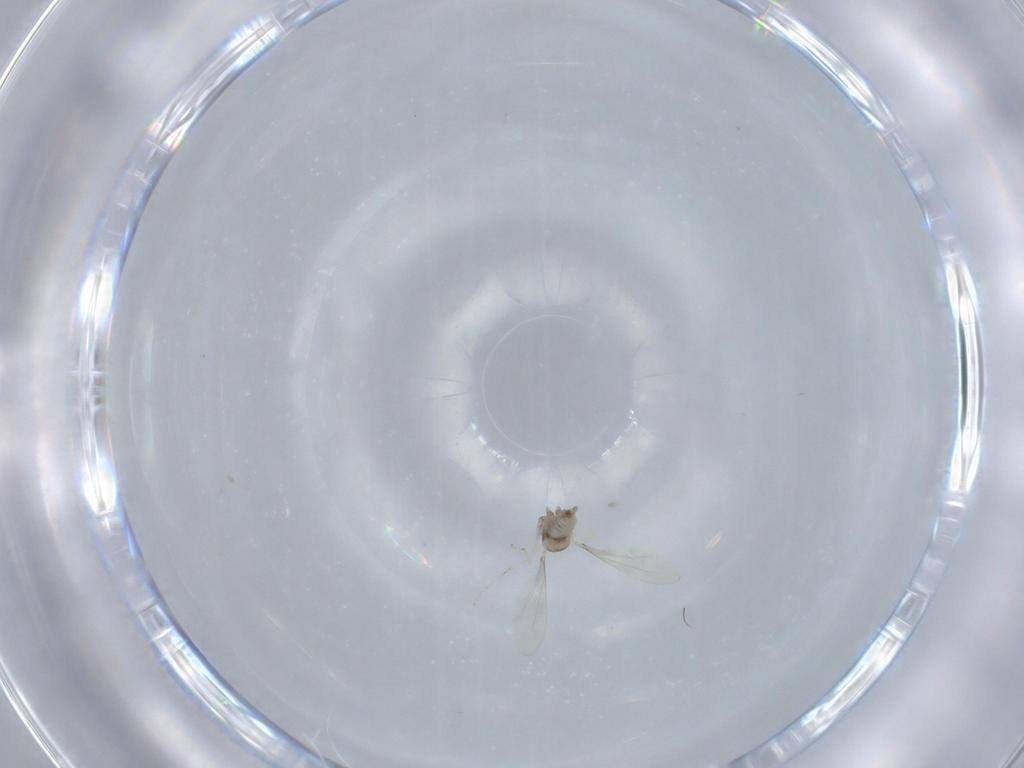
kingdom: Animalia
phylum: Arthropoda
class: Insecta
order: Diptera
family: Cecidomyiidae
